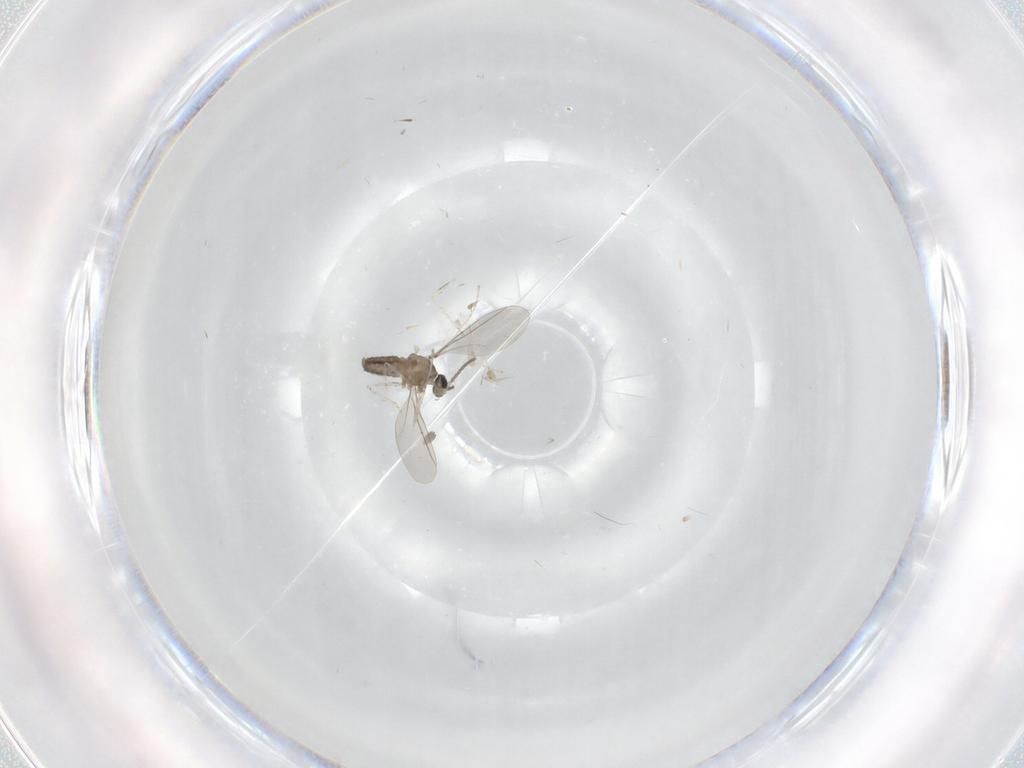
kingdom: Animalia
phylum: Arthropoda
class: Insecta
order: Diptera
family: Cecidomyiidae
